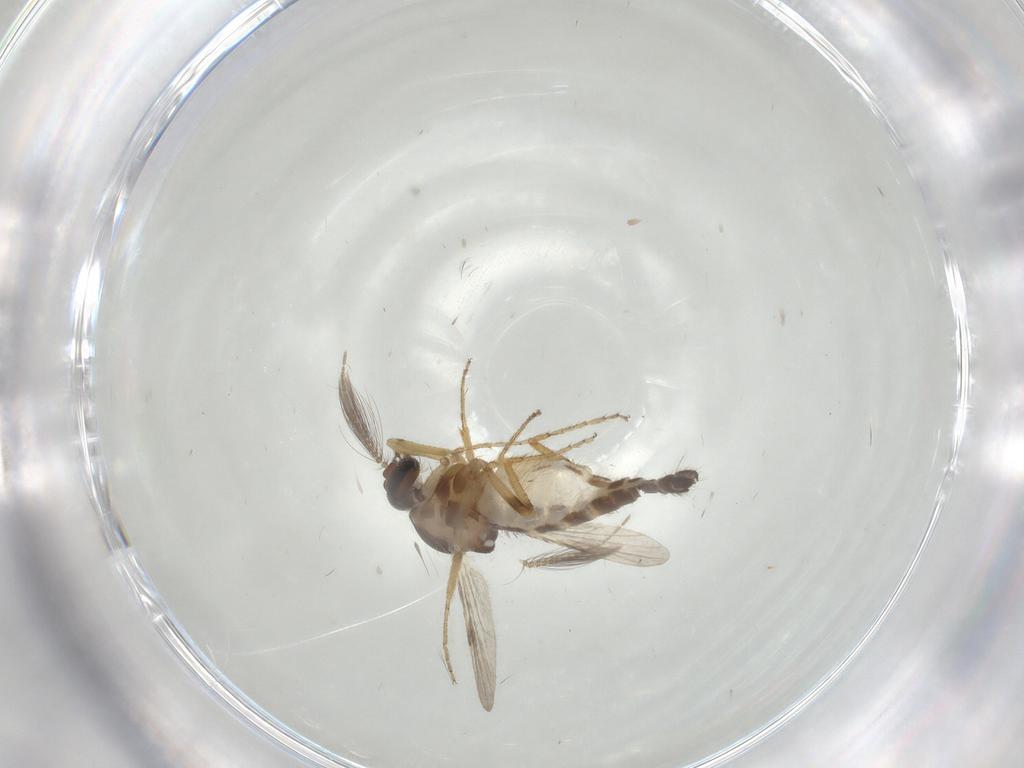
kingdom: Animalia
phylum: Arthropoda
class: Insecta
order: Diptera
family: Ceratopogonidae
